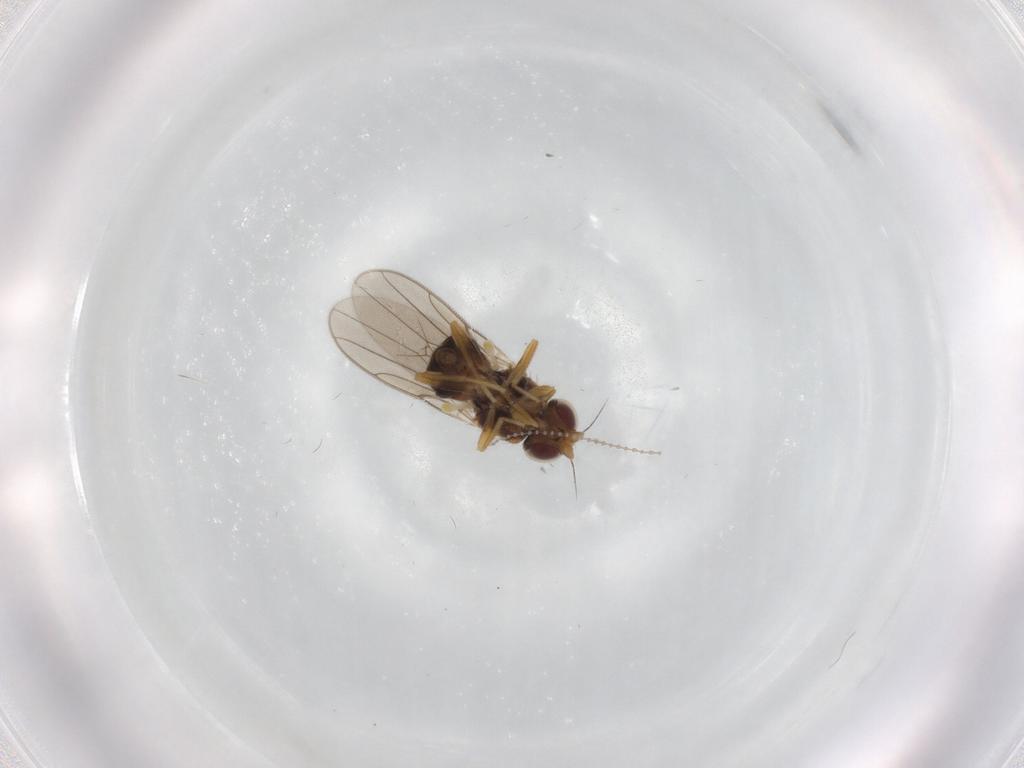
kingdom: Animalia
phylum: Arthropoda
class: Insecta
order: Diptera
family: Chloropidae
